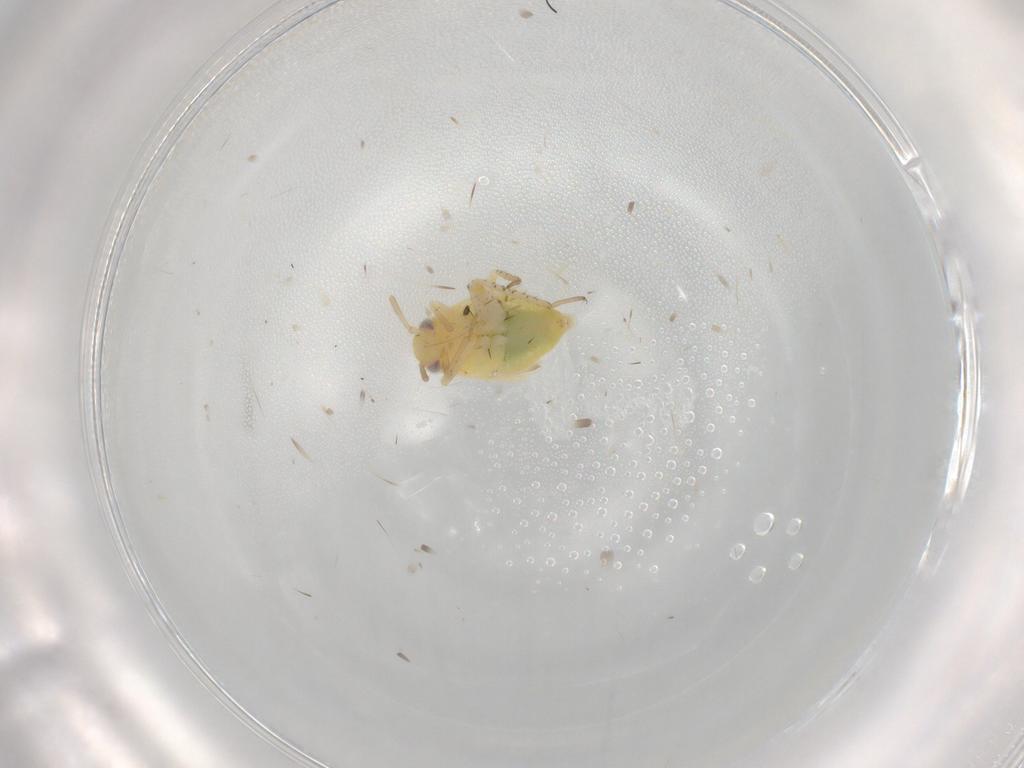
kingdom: Animalia
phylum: Arthropoda
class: Insecta
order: Hemiptera
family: Miridae
